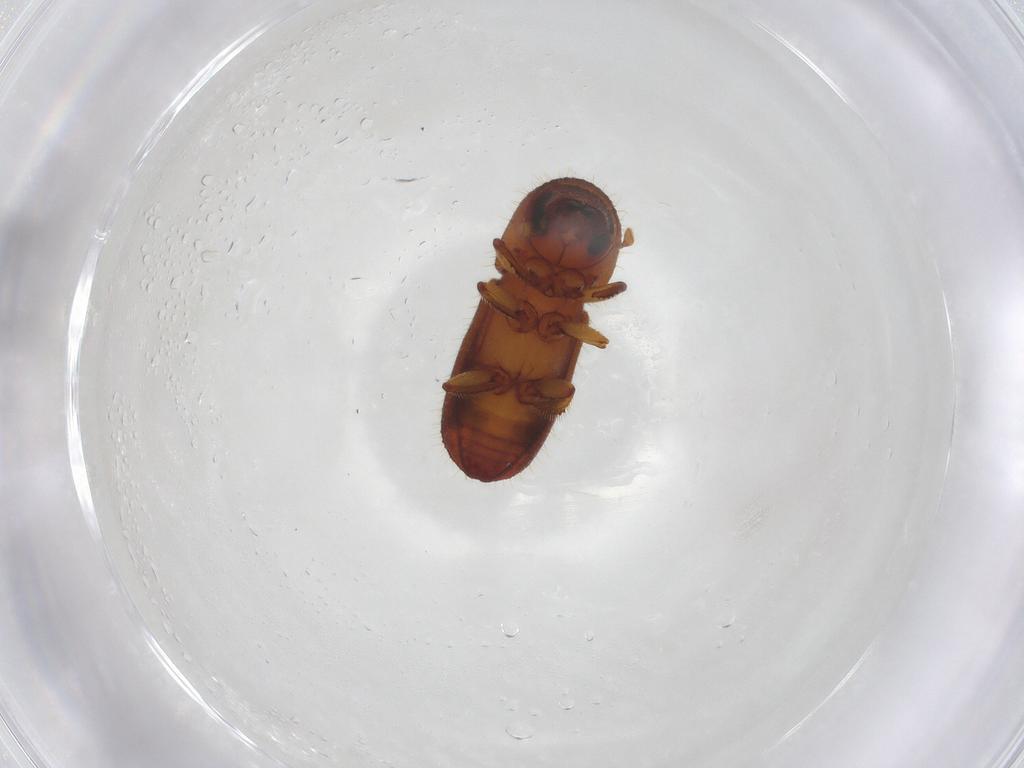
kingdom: Animalia
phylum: Arthropoda
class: Insecta
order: Coleoptera
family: Curculionidae
